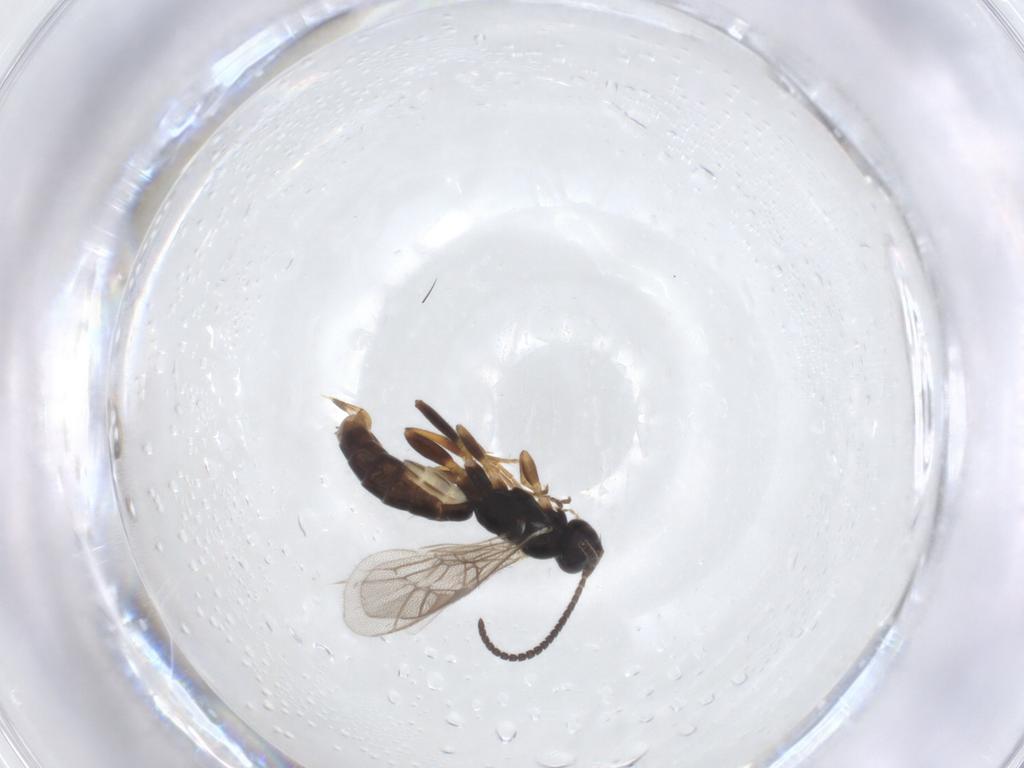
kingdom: Animalia
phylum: Arthropoda
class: Insecta
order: Hymenoptera
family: Ichneumonidae
